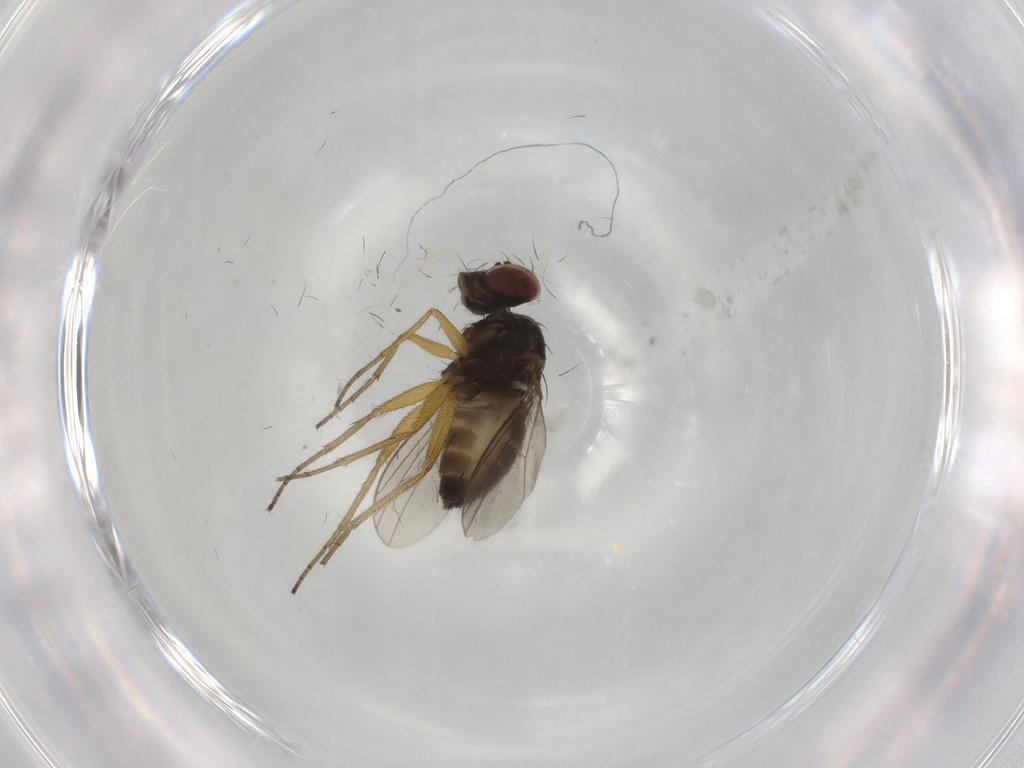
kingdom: Animalia
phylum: Arthropoda
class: Insecta
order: Diptera
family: Dolichopodidae
